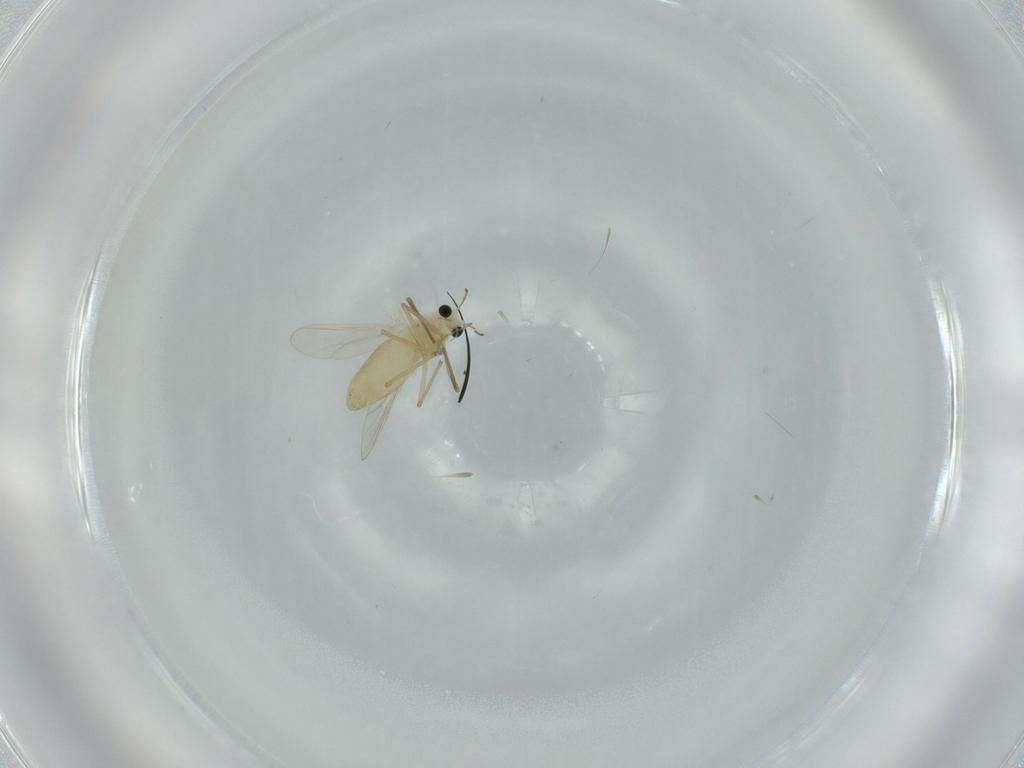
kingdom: Animalia
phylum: Arthropoda
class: Insecta
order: Diptera
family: Chironomidae
